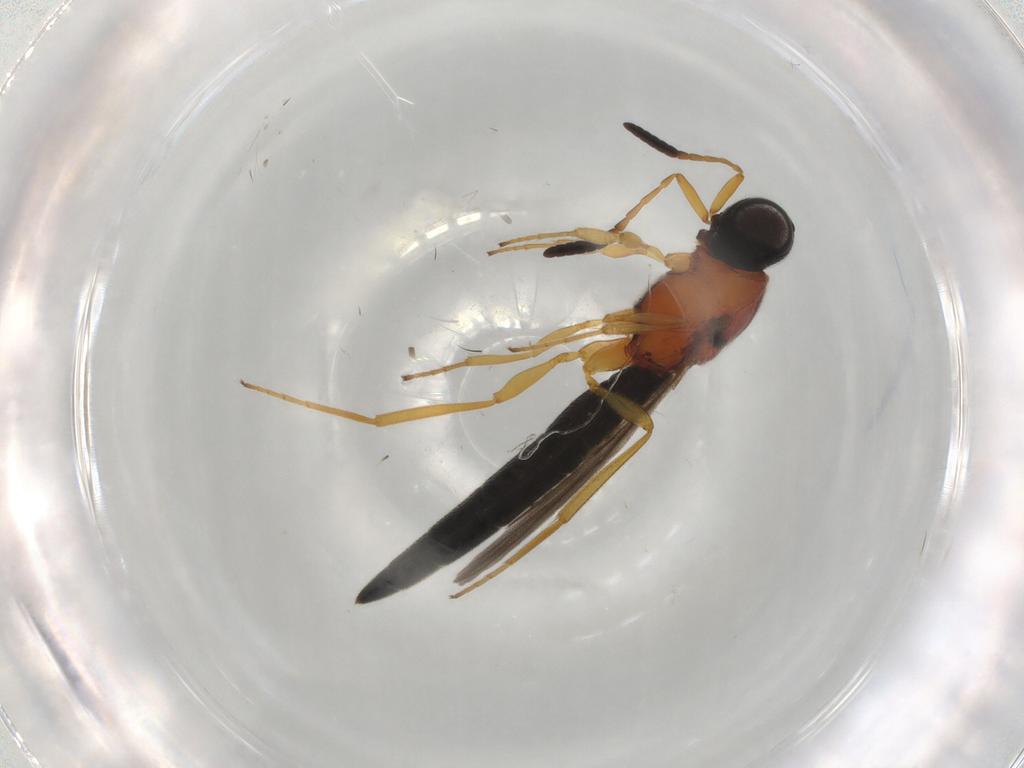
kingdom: Animalia
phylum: Arthropoda
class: Insecta
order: Hymenoptera
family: Scelionidae
